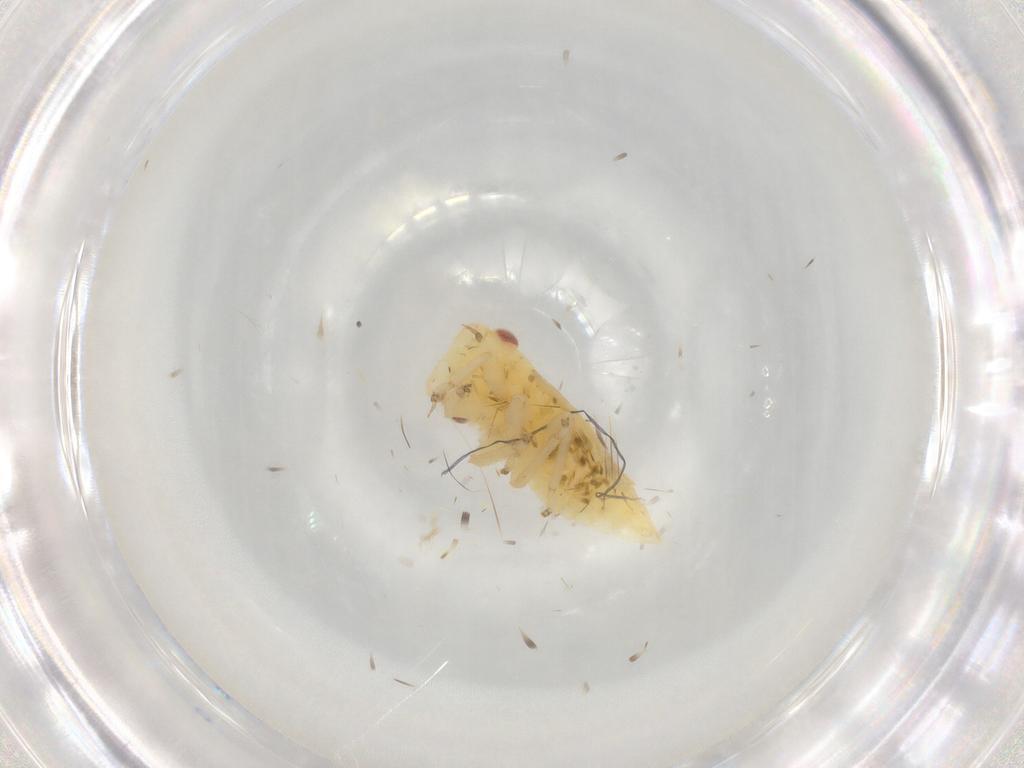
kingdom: Animalia
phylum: Arthropoda
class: Insecta
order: Hemiptera
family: Cicadellidae
